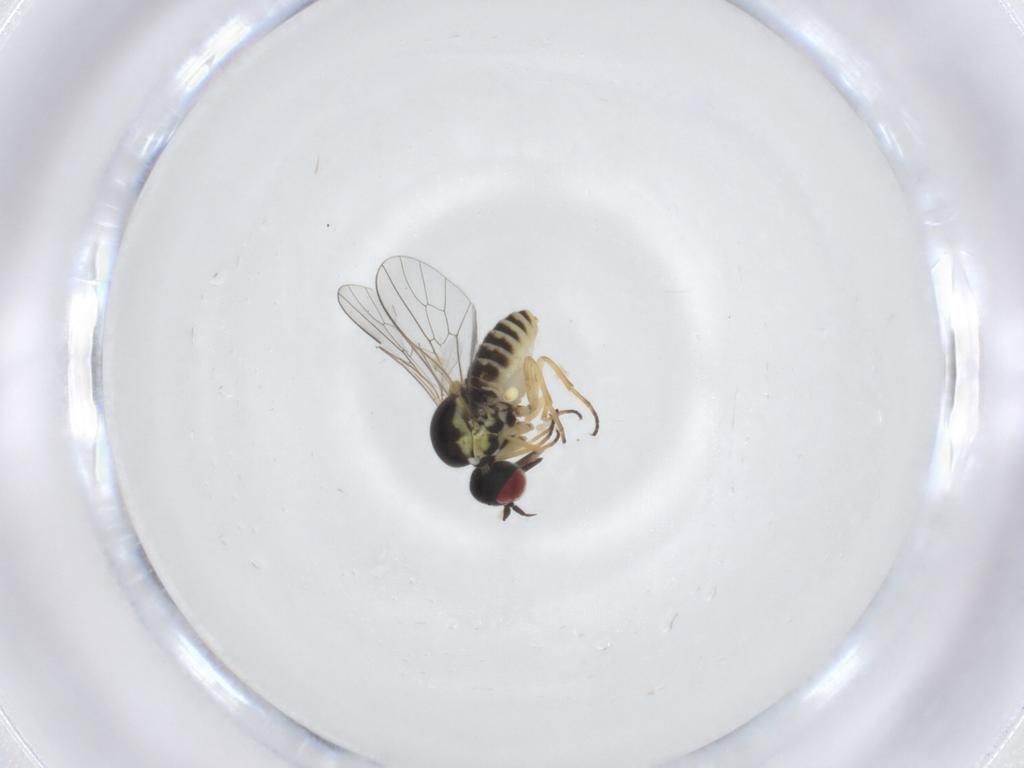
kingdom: Animalia
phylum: Arthropoda
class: Insecta
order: Diptera
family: Mythicomyiidae
